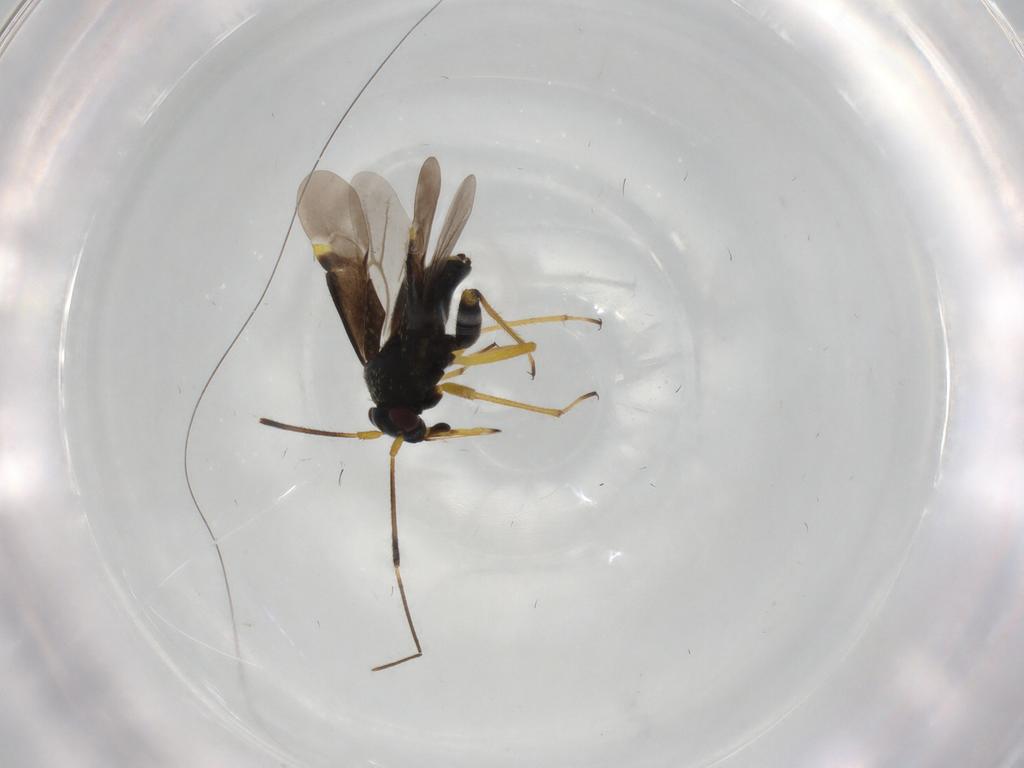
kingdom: Animalia
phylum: Arthropoda
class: Insecta
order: Hemiptera
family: Miridae
